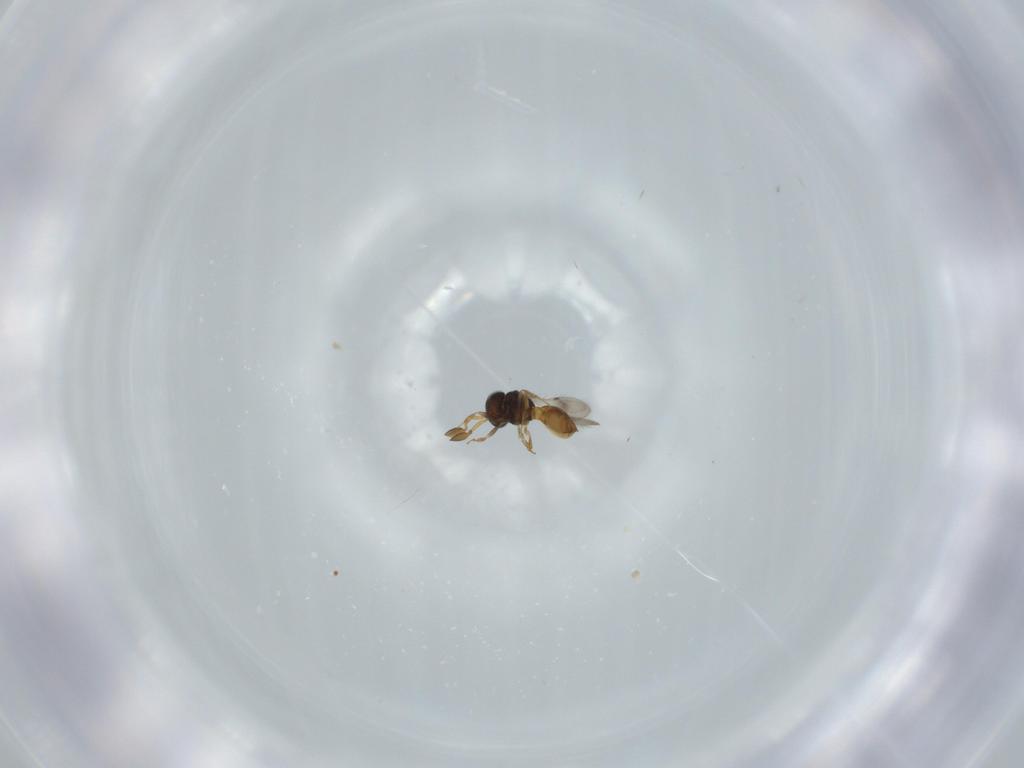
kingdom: Animalia
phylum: Arthropoda
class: Insecta
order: Hymenoptera
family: Scelionidae
